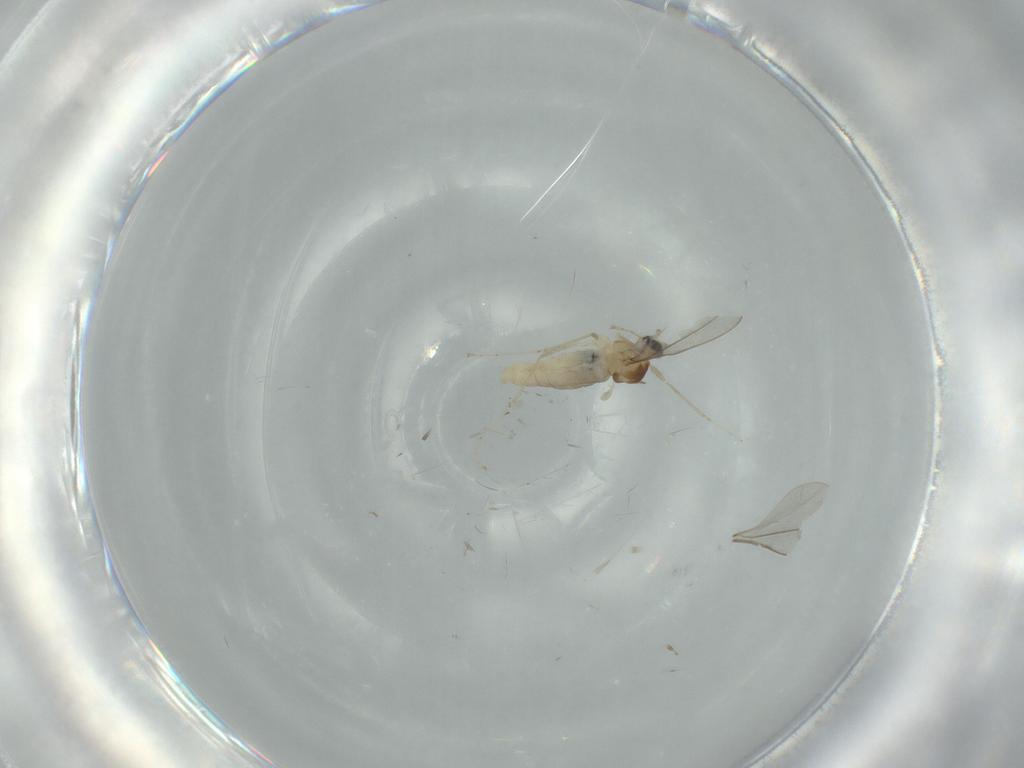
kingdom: Animalia
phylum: Arthropoda
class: Insecta
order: Diptera
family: Cecidomyiidae
